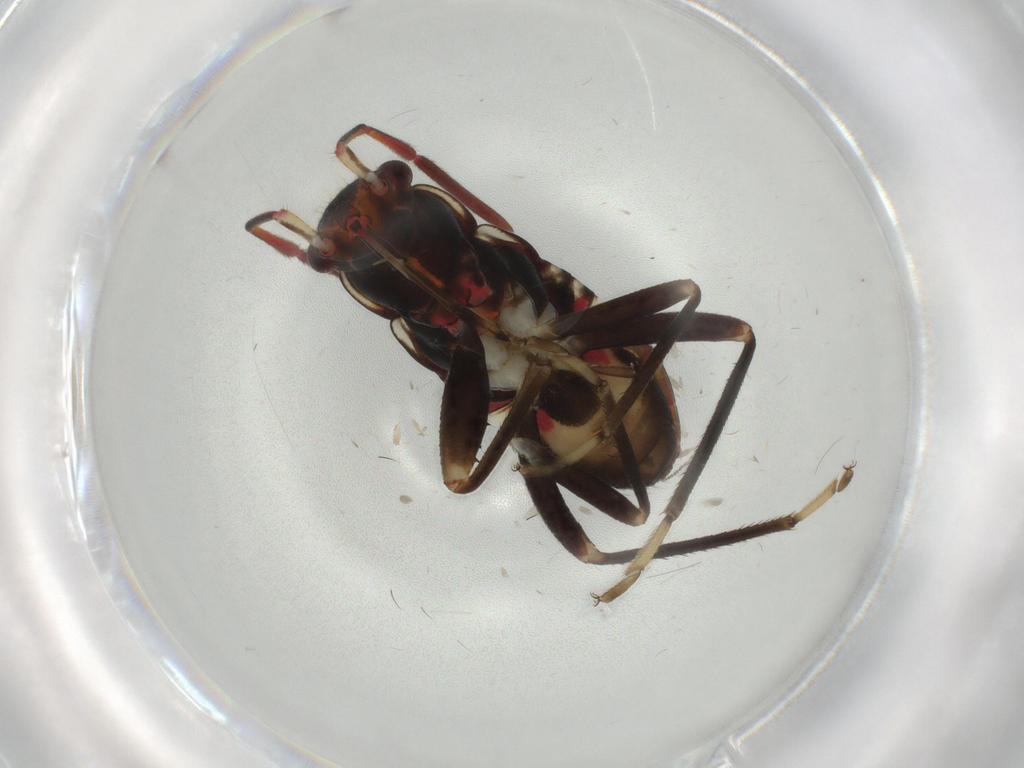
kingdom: Animalia
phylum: Arthropoda
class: Insecta
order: Hemiptera
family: Rhyparochromidae
